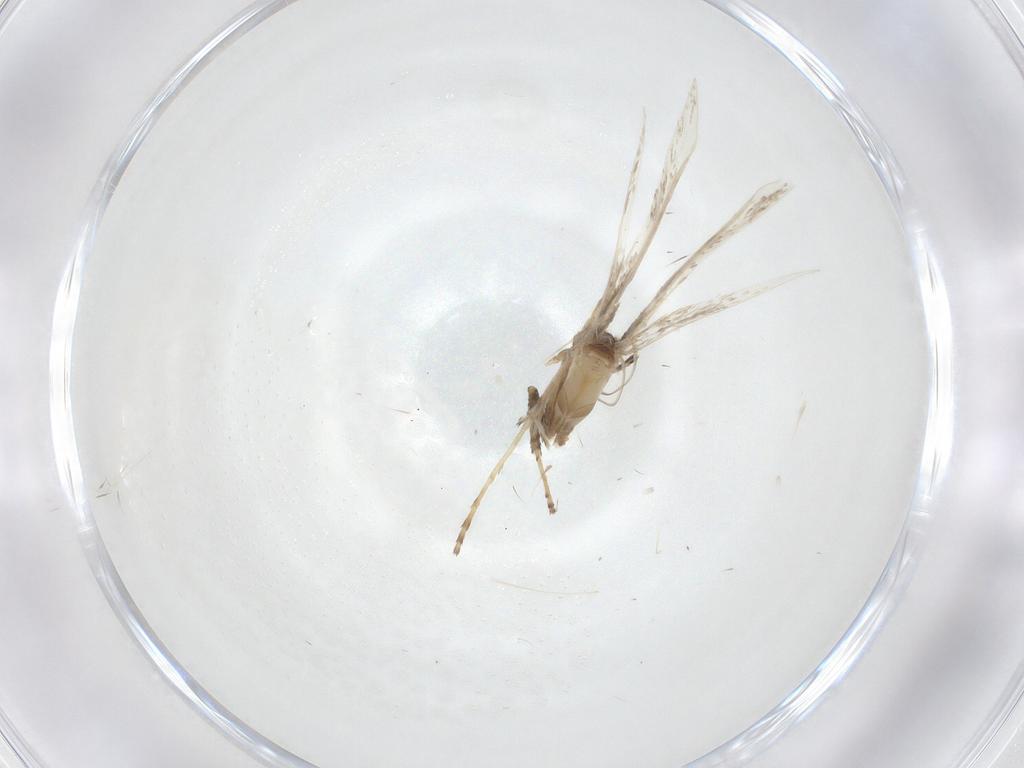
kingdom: Animalia
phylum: Arthropoda
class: Insecta
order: Lepidoptera
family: Gracillariidae
